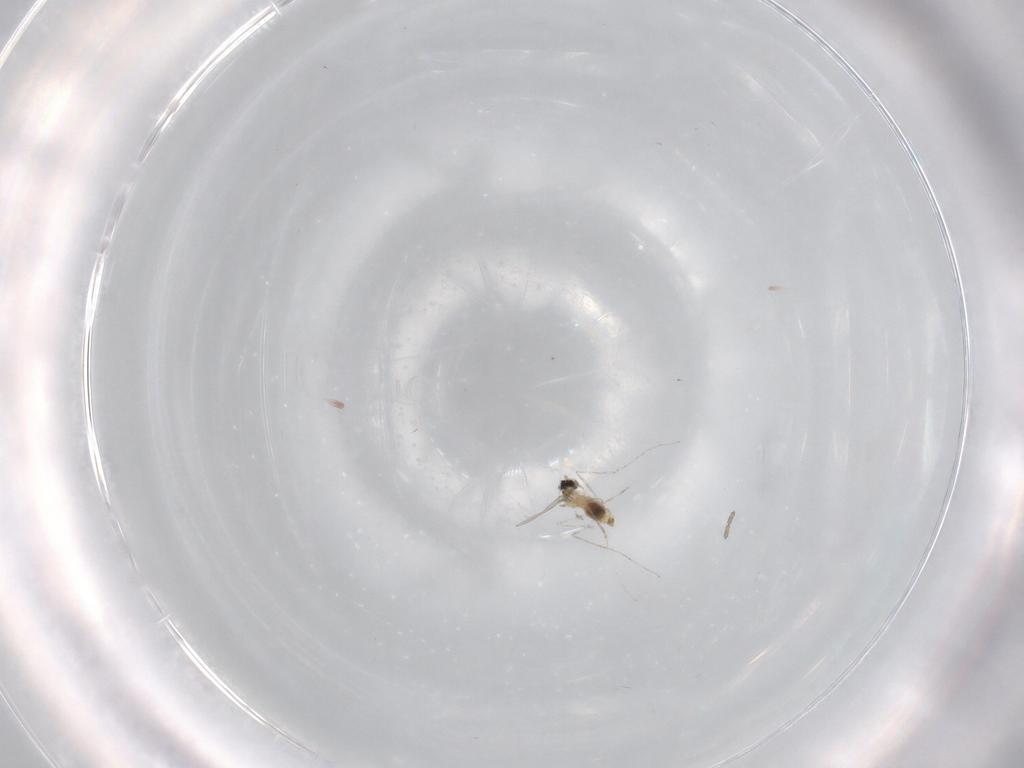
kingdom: Animalia
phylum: Arthropoda
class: Insecta
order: Diptera
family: Cecidomyiidae
